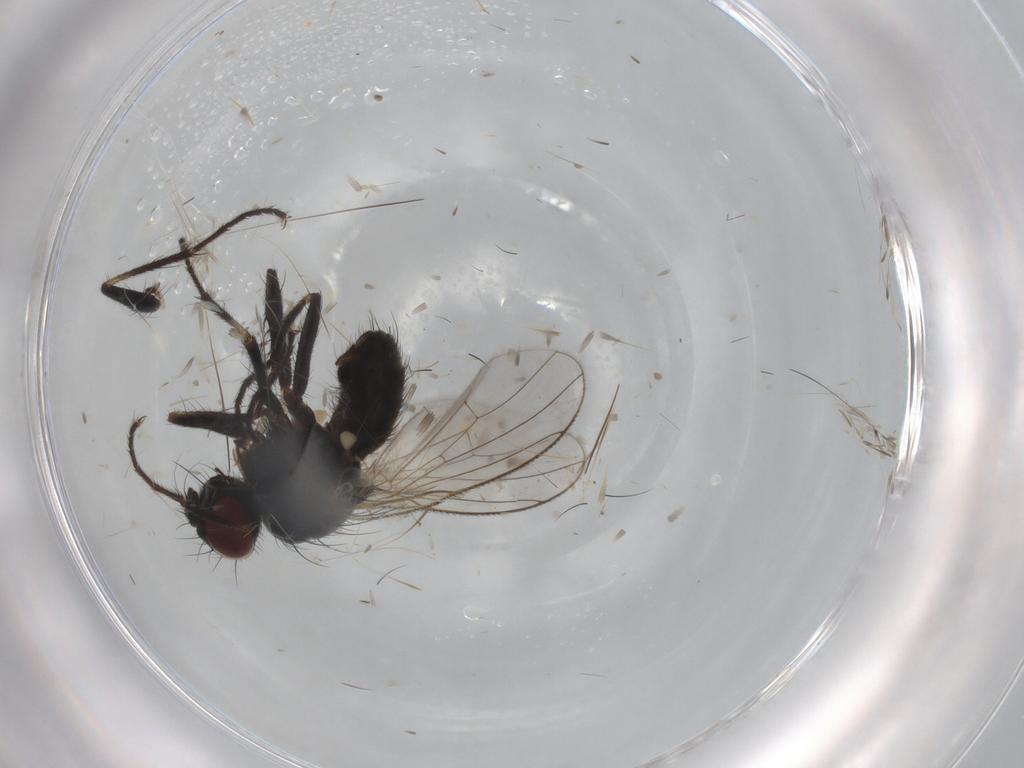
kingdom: Animalia
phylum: Arthropoda
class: Insecta
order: Diptera
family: Muscidae
